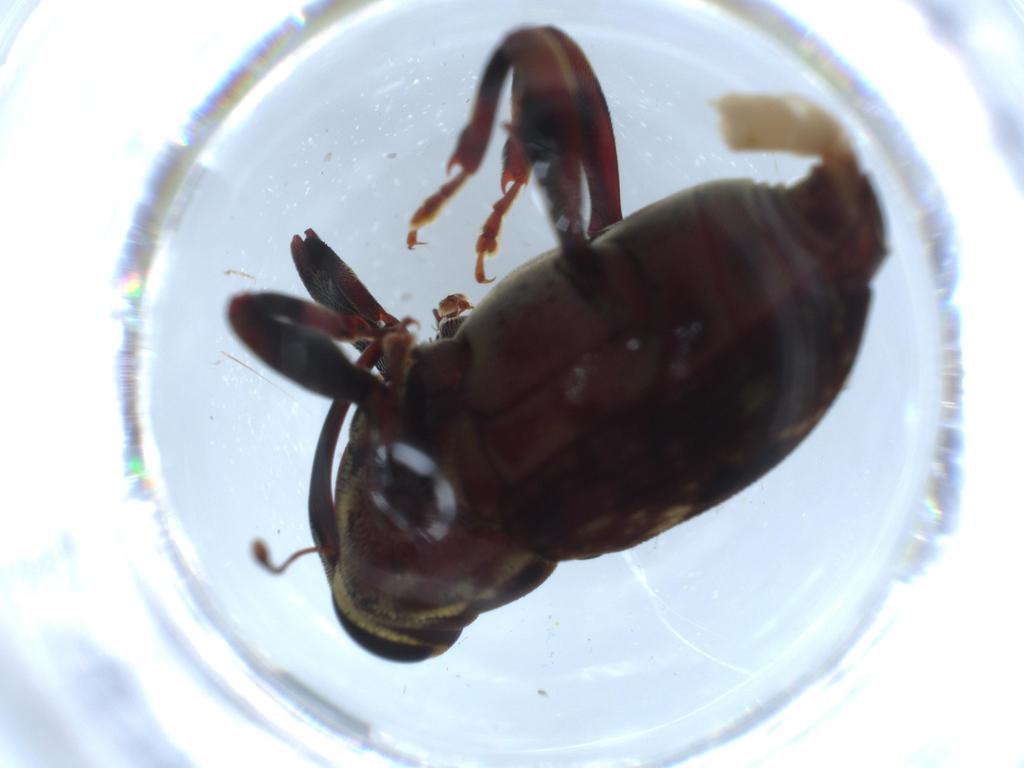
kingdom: Animalia
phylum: Arthropoda
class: Insecta
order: Coleoptera
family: Curculionidae
